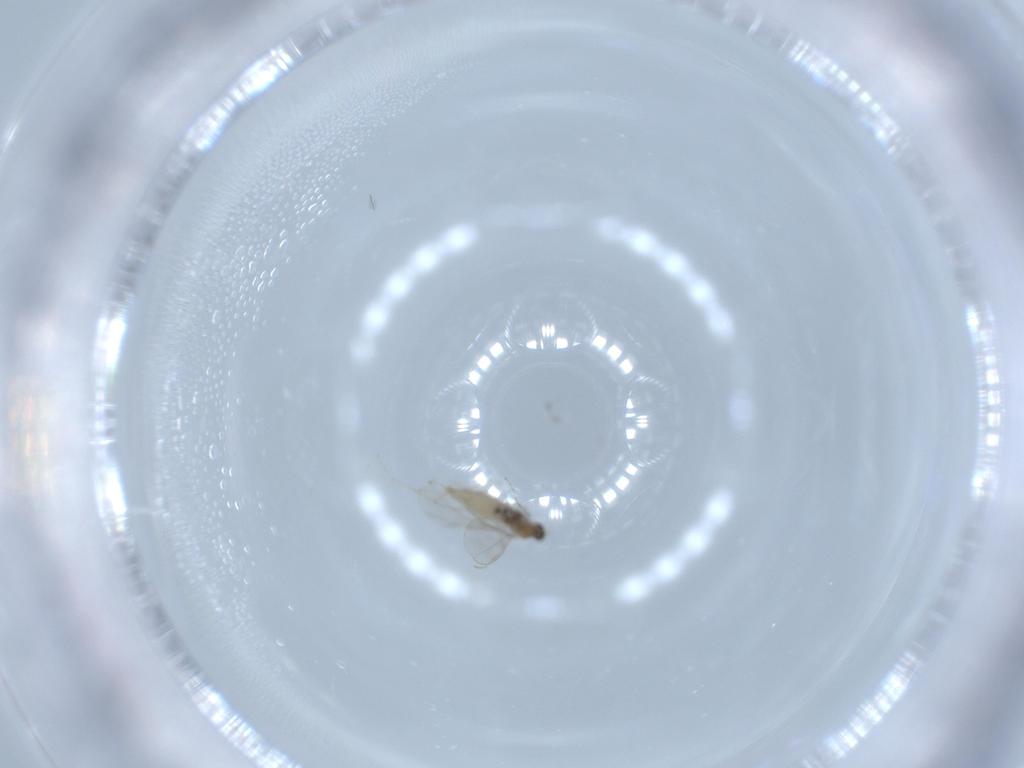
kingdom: Animalia
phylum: Arthropoda
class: Insecta
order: Diptera
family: Cecidomyiidae
